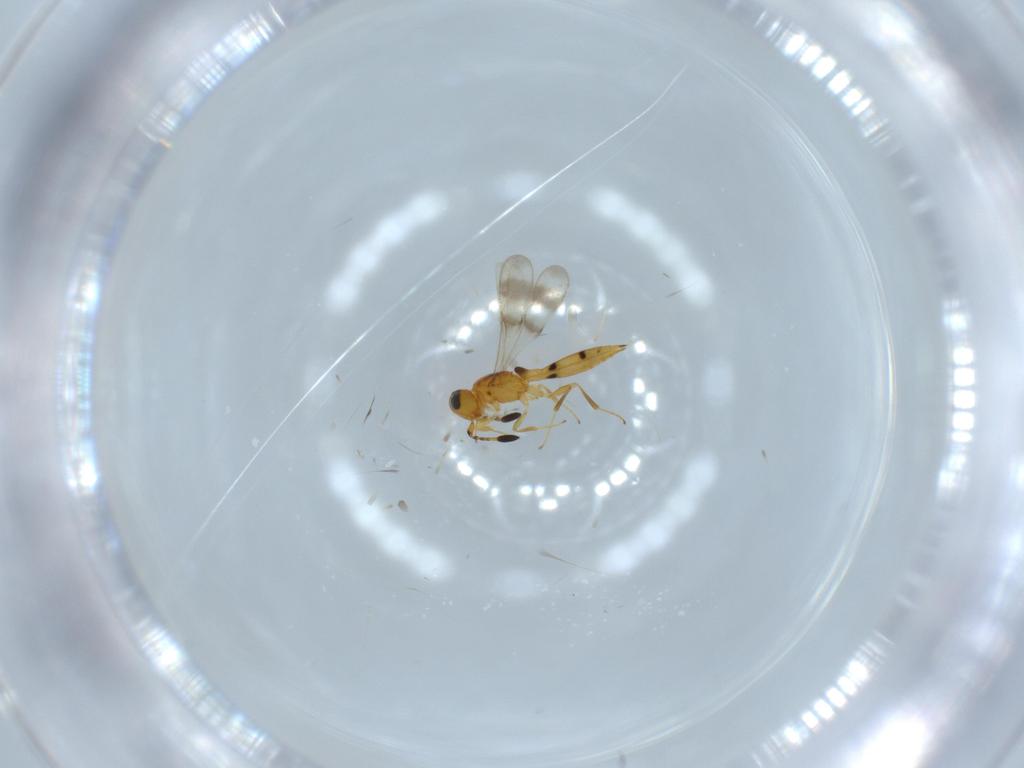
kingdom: Animalia
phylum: Arthropoda
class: Insecta
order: Hymenoptera
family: Scelionidae
